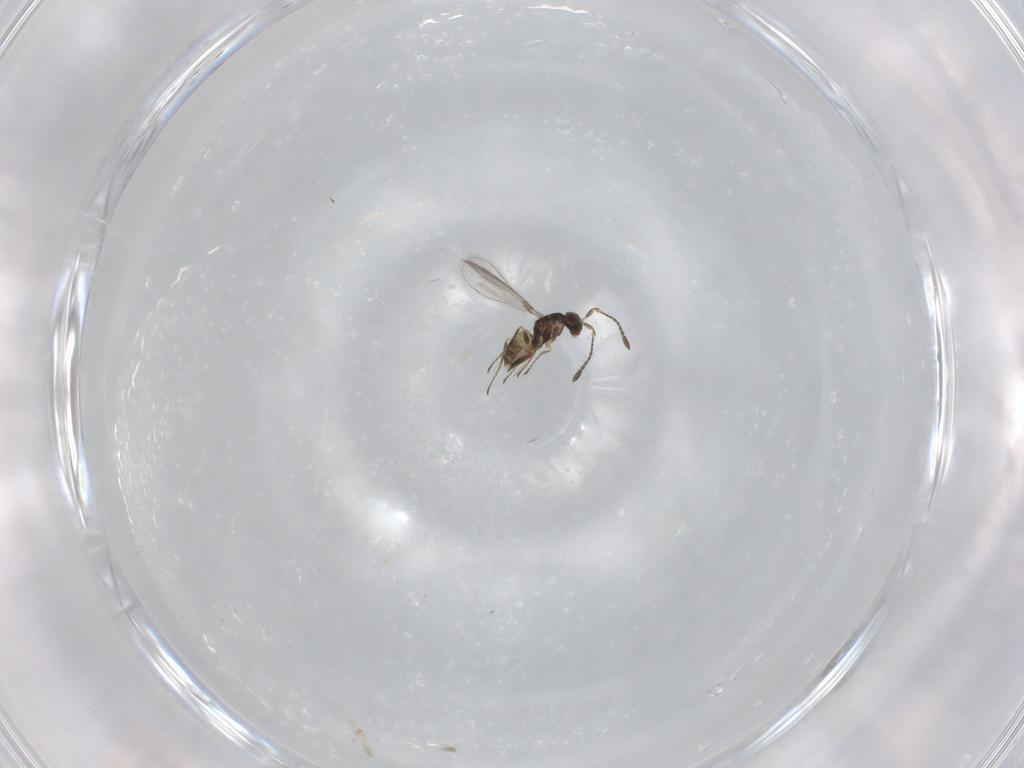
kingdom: Animalia
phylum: Arthropoda
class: Insecta
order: Hymenoptera
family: Mymaridae
